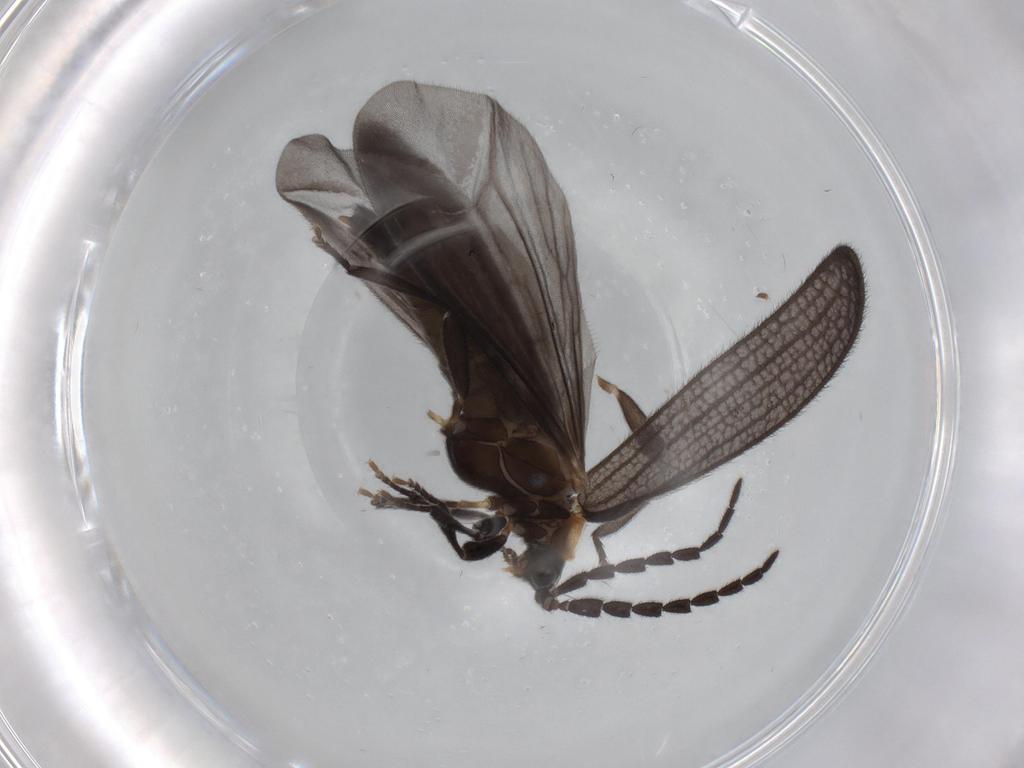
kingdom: Animalia
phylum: Arthropoda
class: Insecta
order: Coleoptera
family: Lycidae
